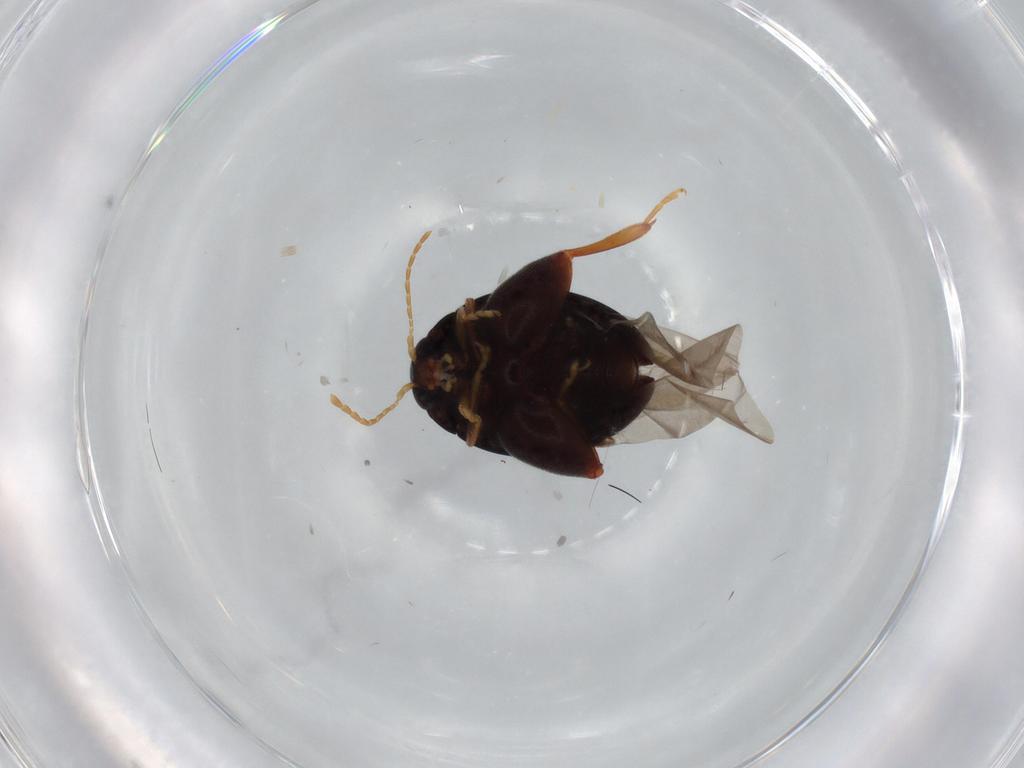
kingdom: Animalia
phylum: Arthropoda
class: Insecta
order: Coleoptera
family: Chrysomelidae
